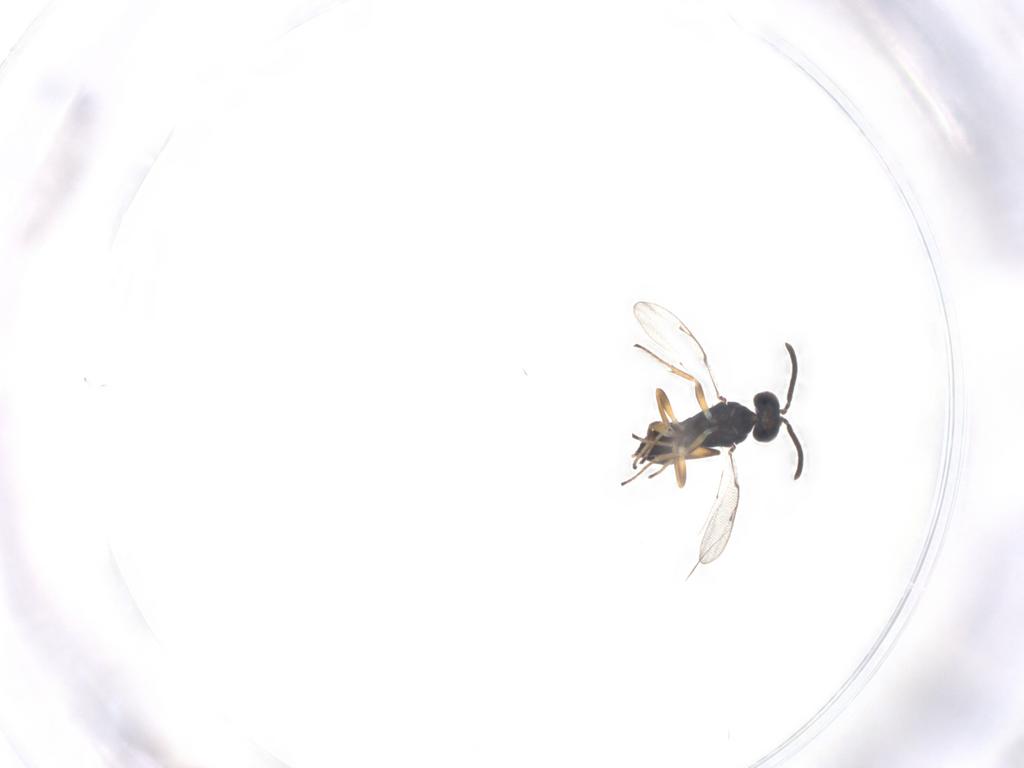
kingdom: Animalia
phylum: Arthropoda
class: Insecta
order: Hymenoptera
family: Eupelmidae
